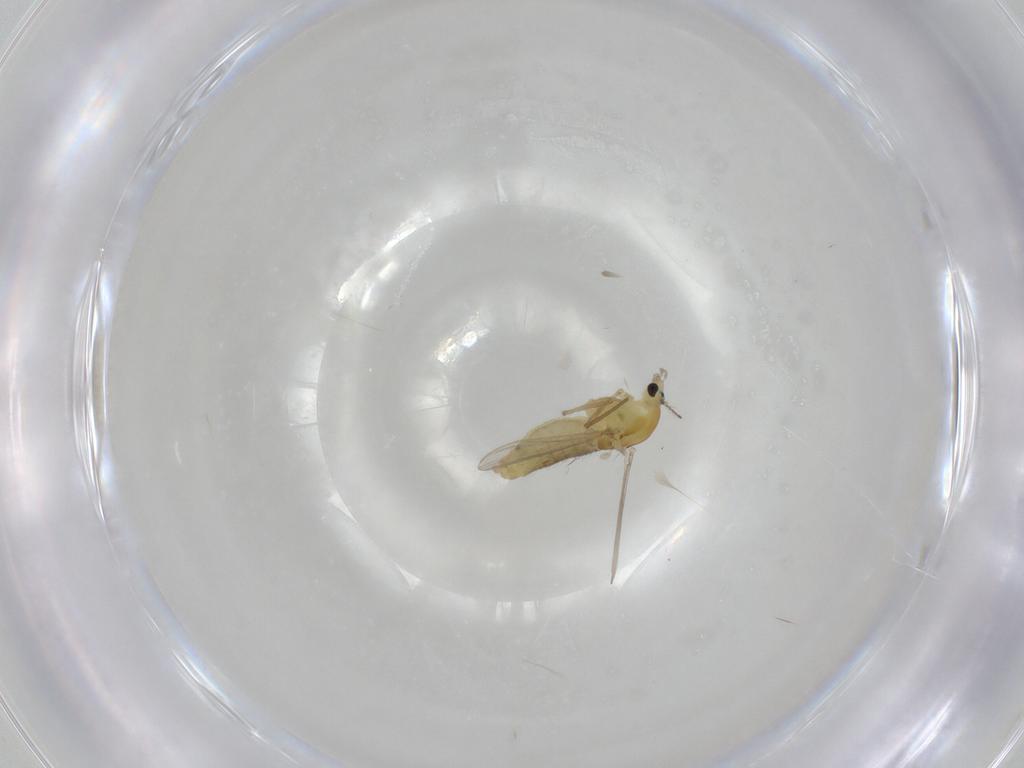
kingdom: Animalia
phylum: Arthropoda
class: Insecta
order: Diptera
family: Chironomidae
